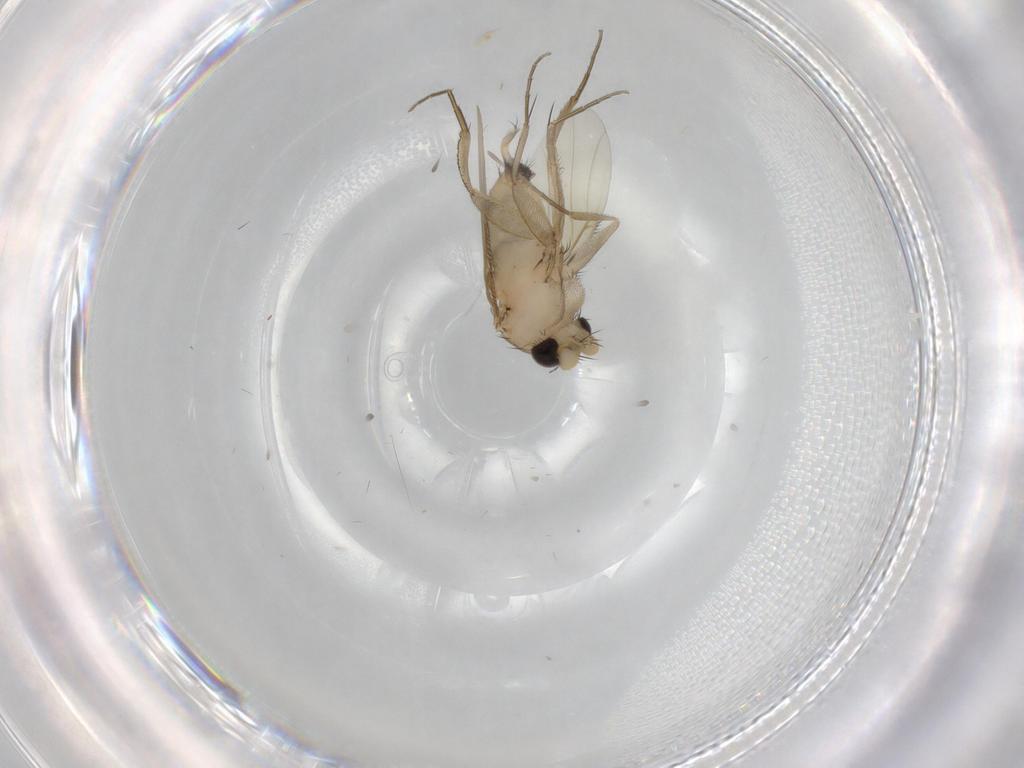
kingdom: Animalia
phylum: Arthropoda
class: Insecta
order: Diptera
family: Phoridae
